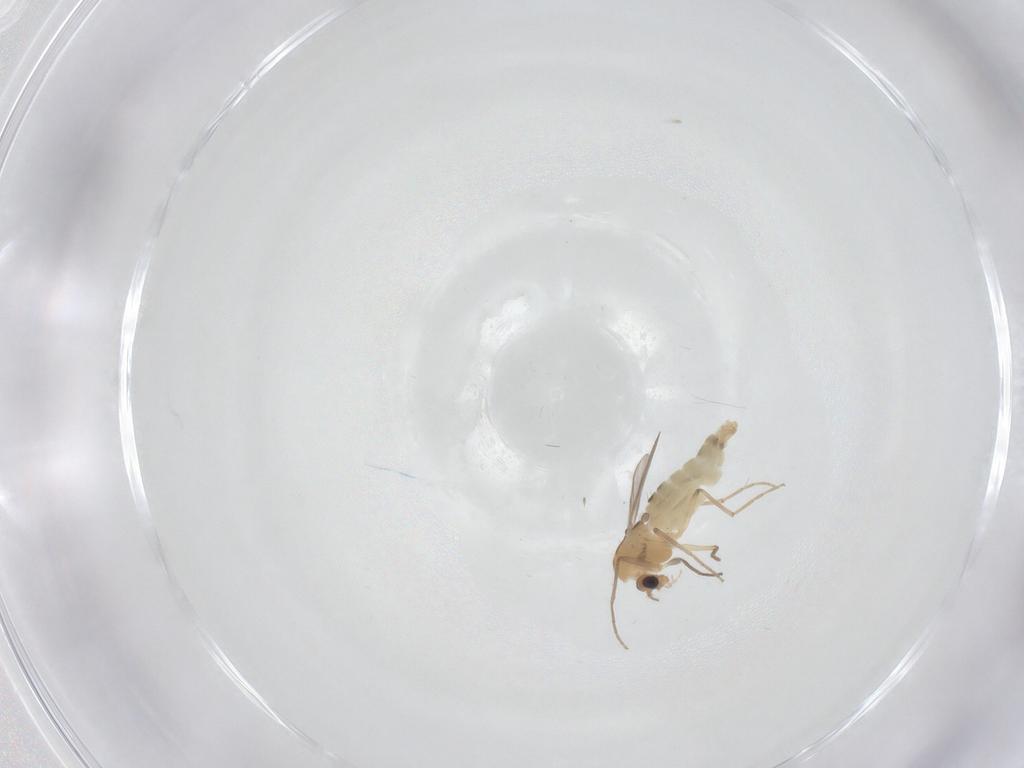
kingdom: Animalia
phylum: Arthropoda
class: Insecta
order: Diptera
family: Chironomidae
